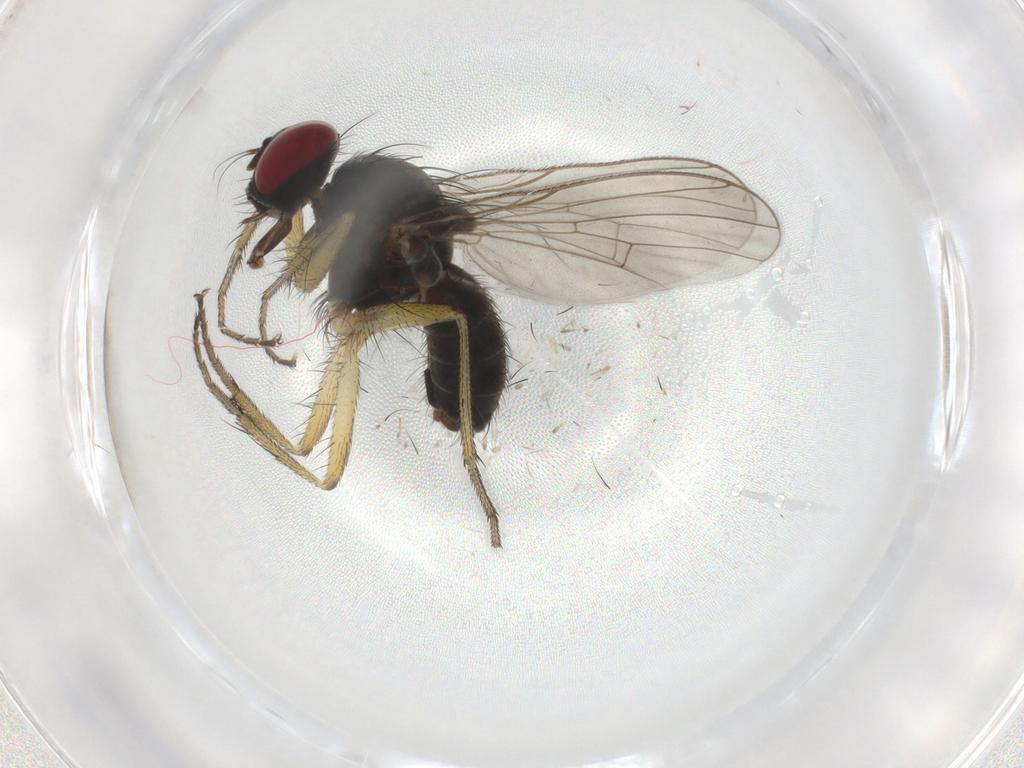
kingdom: Animalia
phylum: Arthropoda
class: Insecta
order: Diptera
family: Muscidae
